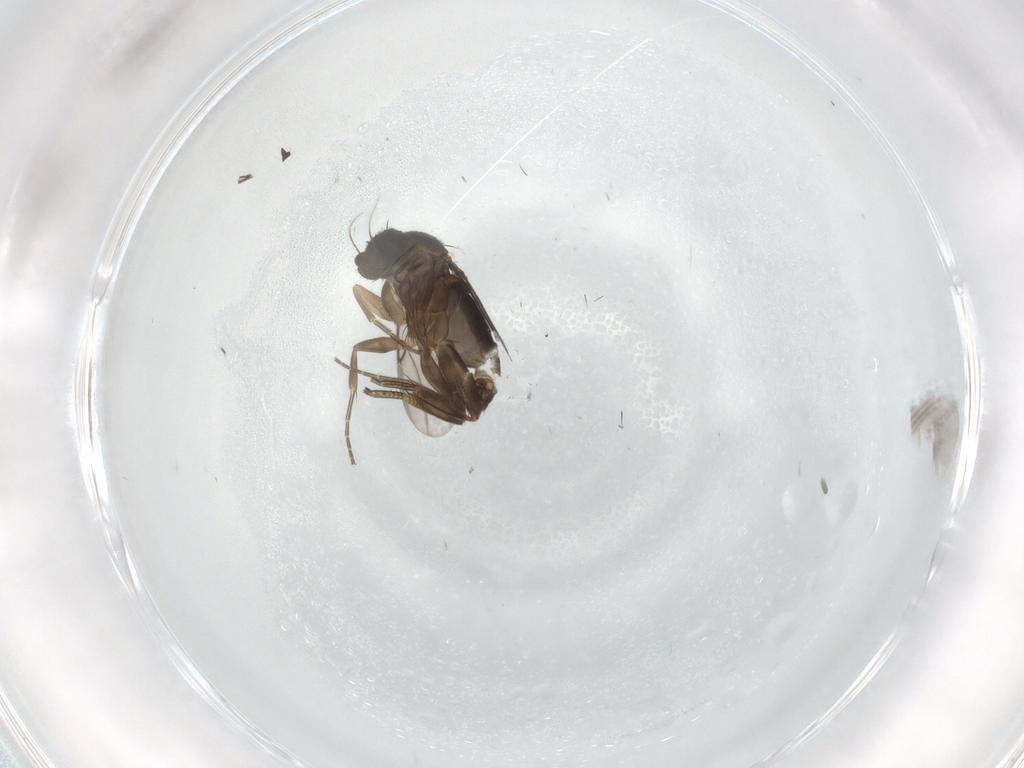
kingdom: Animalia
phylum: Arthropoda
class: Insecta
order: Diptera
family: Phoridae
